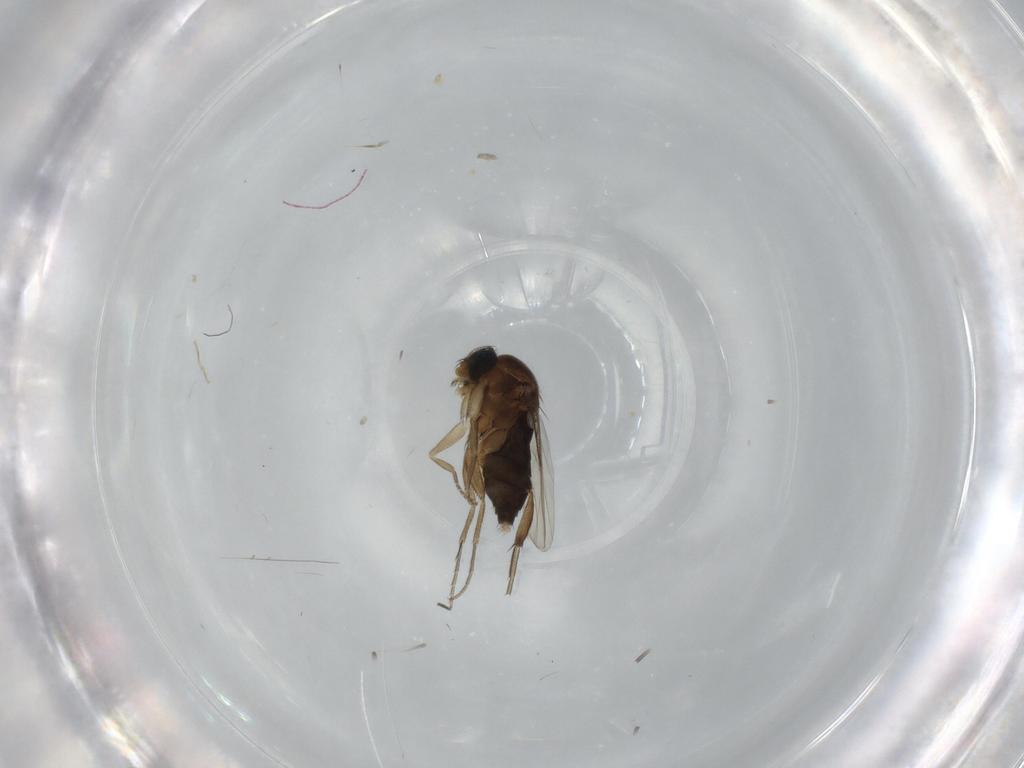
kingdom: Animalia
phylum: Arthropoda
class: Insecta
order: Diptera
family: Phoridae
